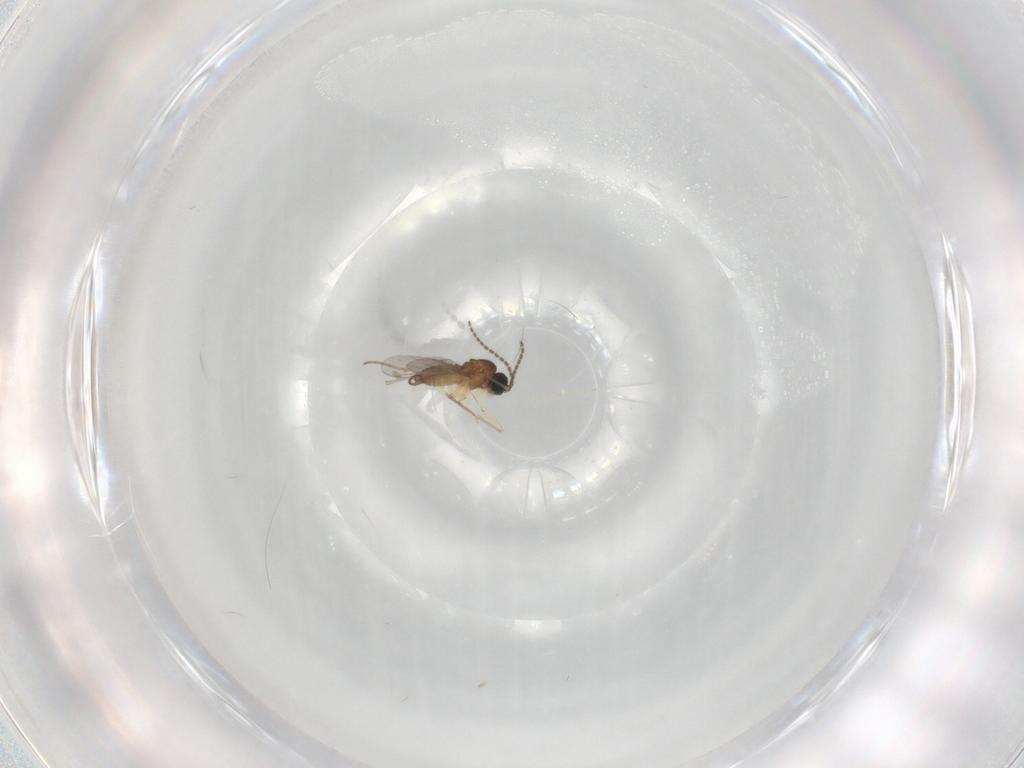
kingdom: Animalia
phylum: Arthropoda
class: Insecta
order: Diptera
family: Sciaridae
